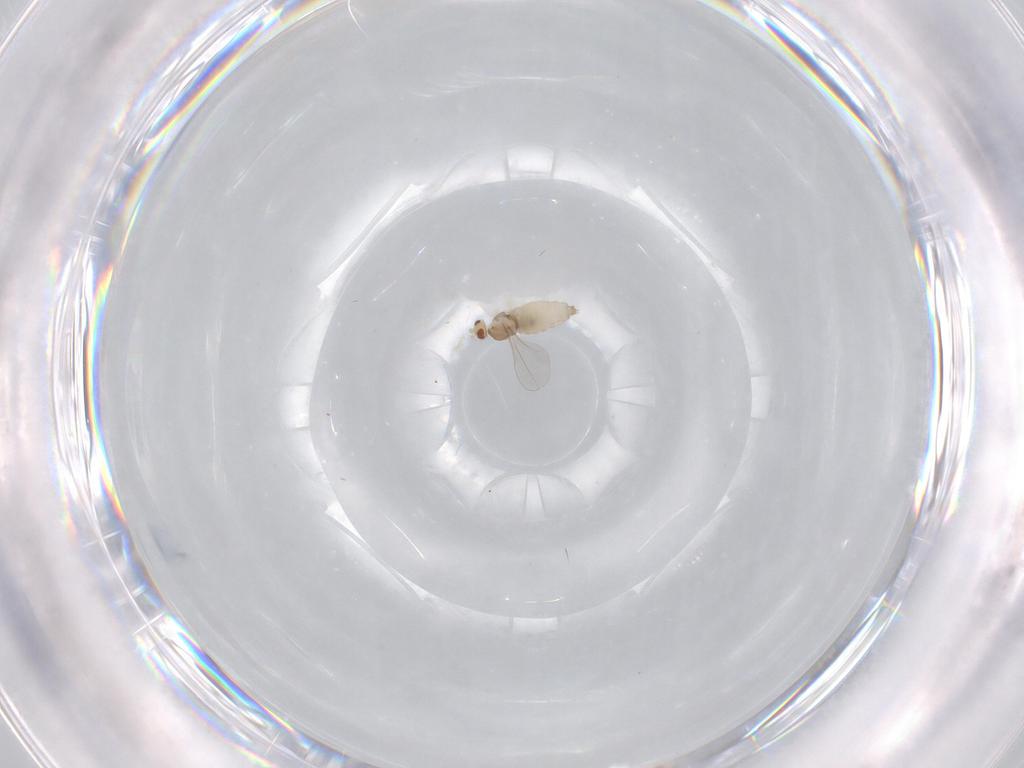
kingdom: Animalia
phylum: Arthropoda
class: Insecta
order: Diptera
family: Cecidomyiidae
